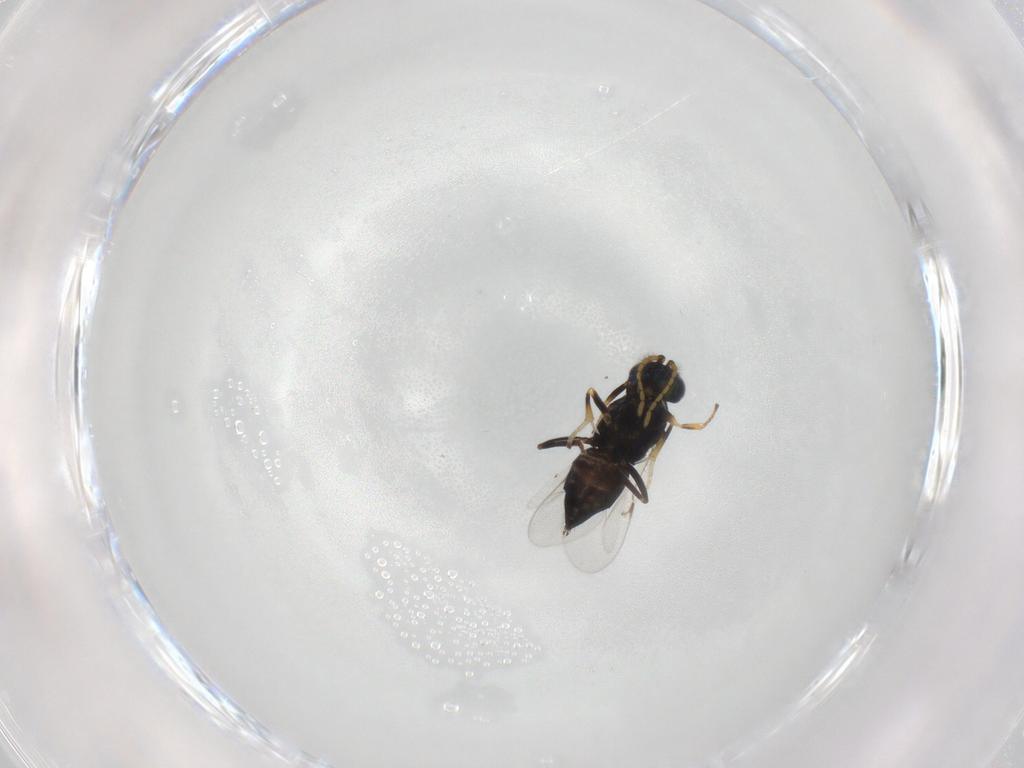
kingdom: Animalia
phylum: Arthropoda
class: Insecta
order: Hymenoptera
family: Encyrtidae
